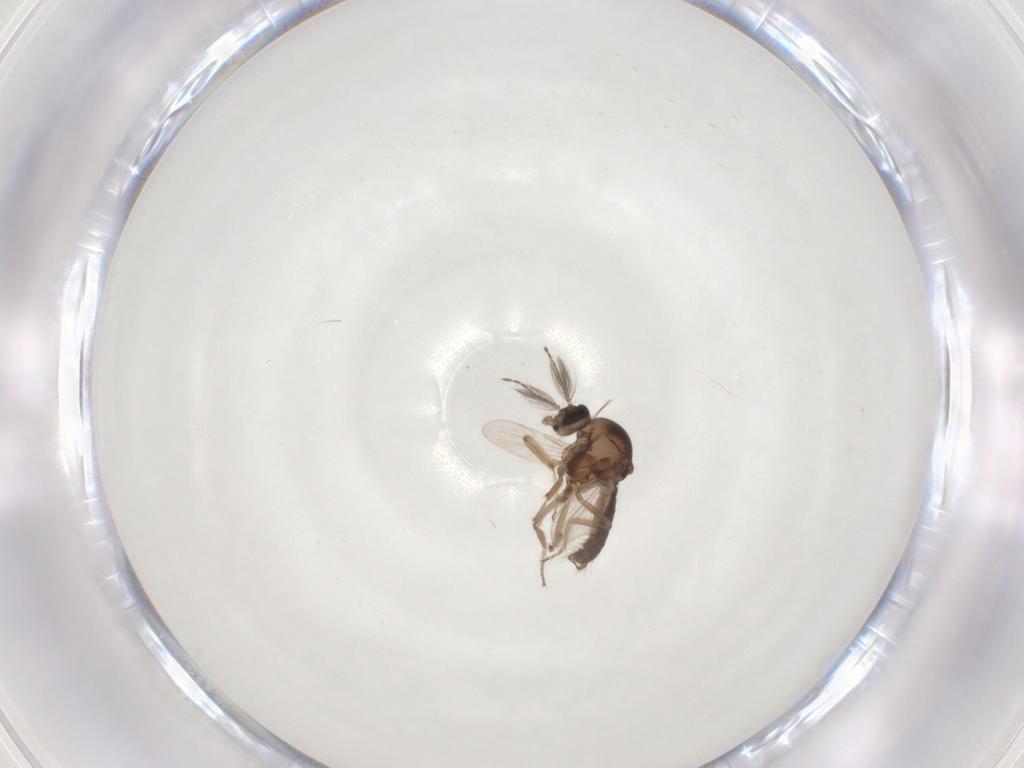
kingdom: Animalia
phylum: Arthropoda
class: Insecta
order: Diptera
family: Ceratopogonidae
